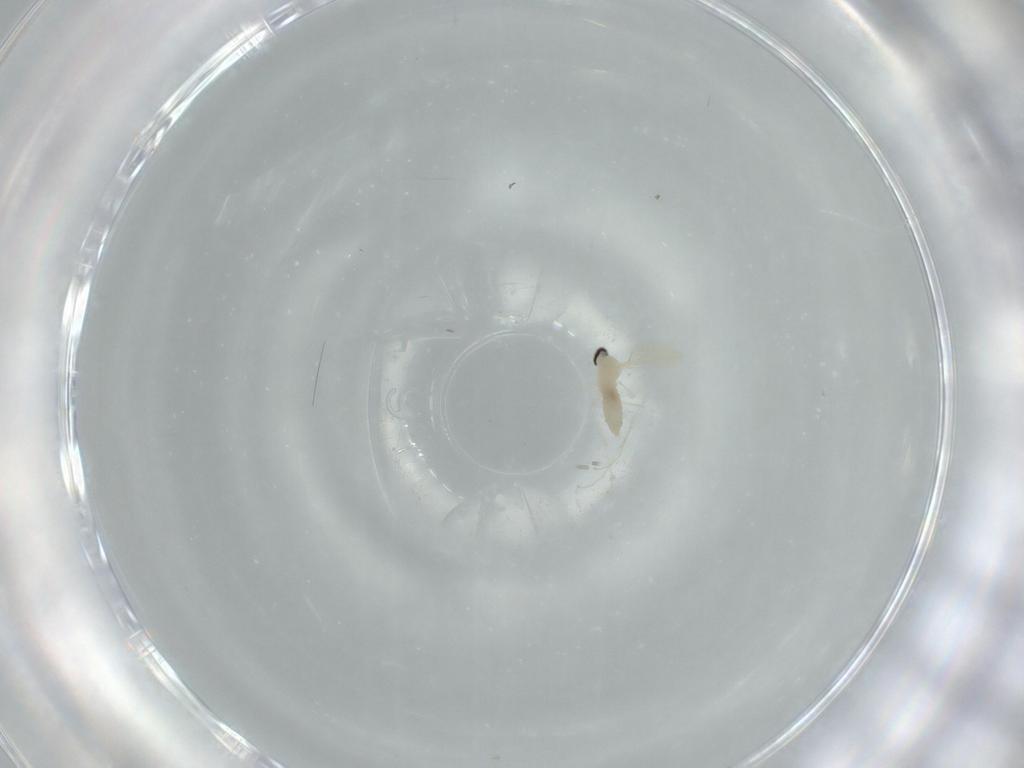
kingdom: Animalia
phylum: Arthropoda
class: Insecta
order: Diptera
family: Cecidomyiidae
